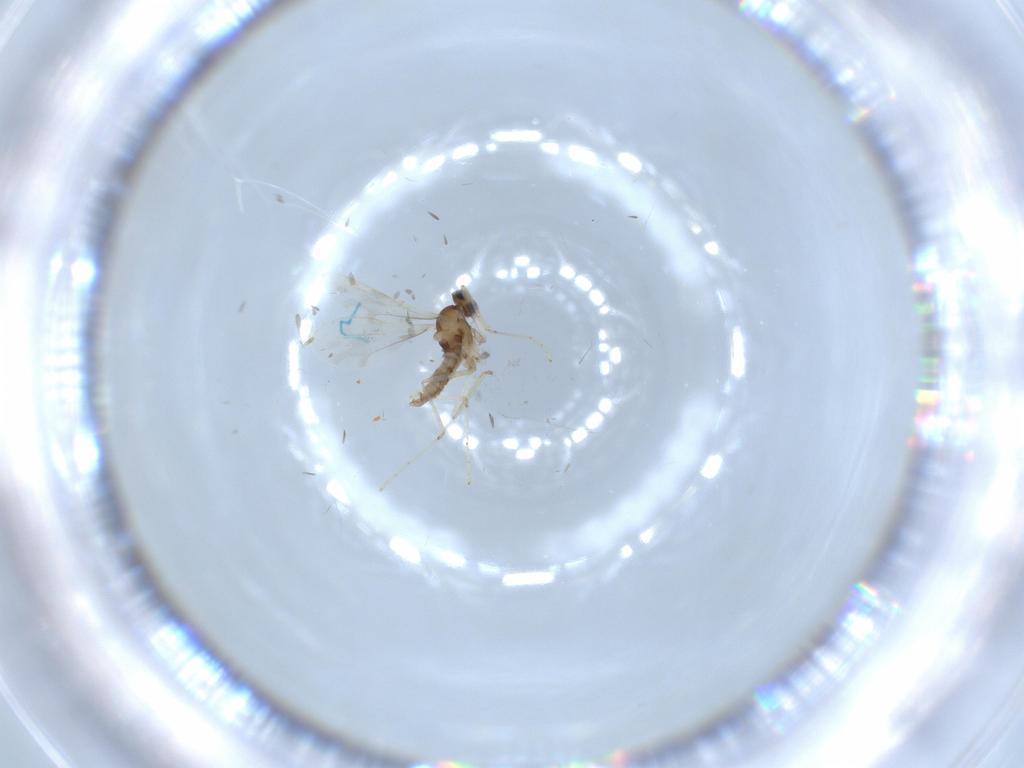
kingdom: Animalia
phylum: Arthropoda
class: Insecta
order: Diptera
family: Cecidomyiidae
